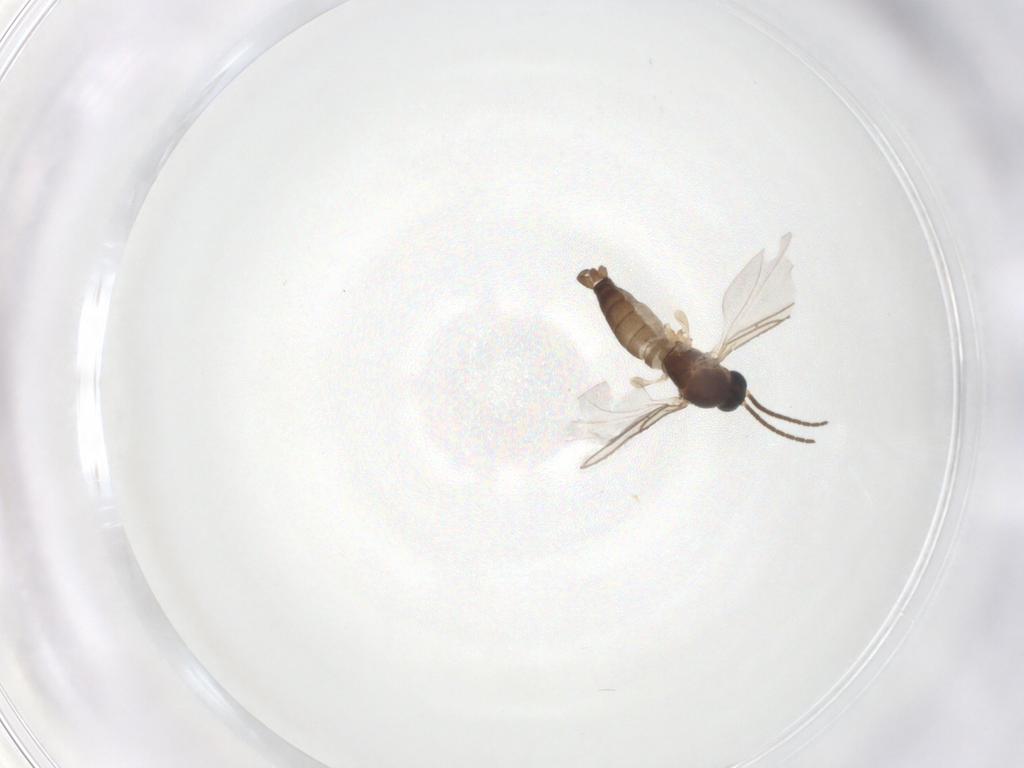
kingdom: Animalia
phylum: Arthropoda
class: Insecta
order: Diptera
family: Sciaridae
